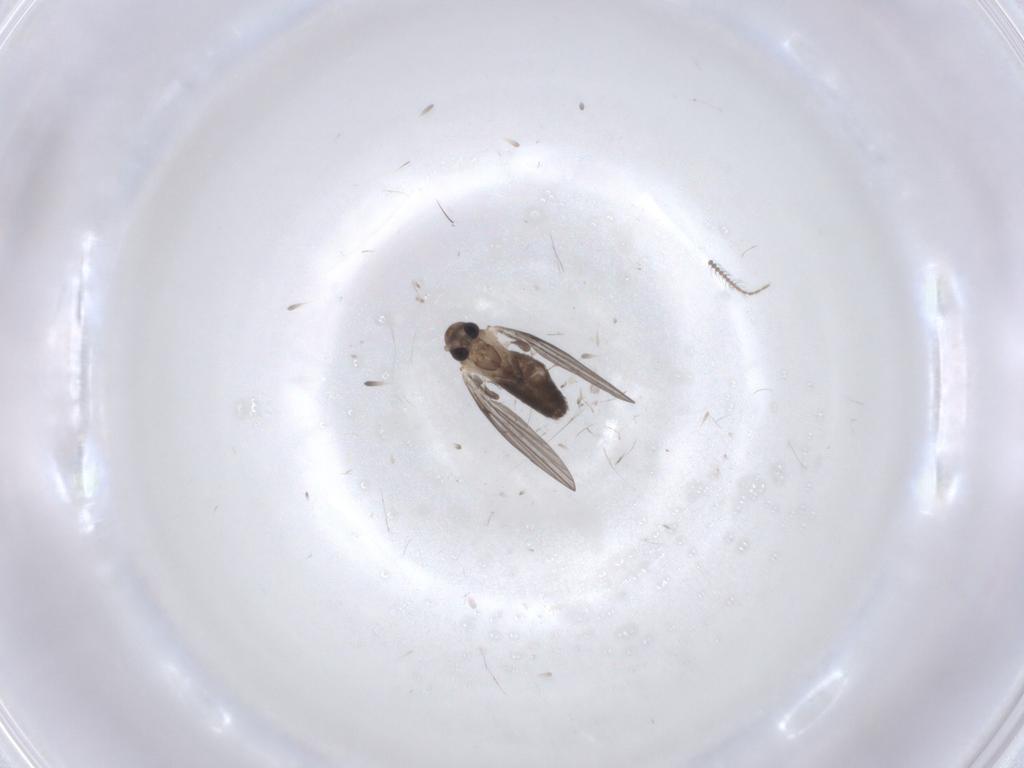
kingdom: Animalia
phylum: Arthropoda
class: Insecta
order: Diptera
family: Psychodidae
